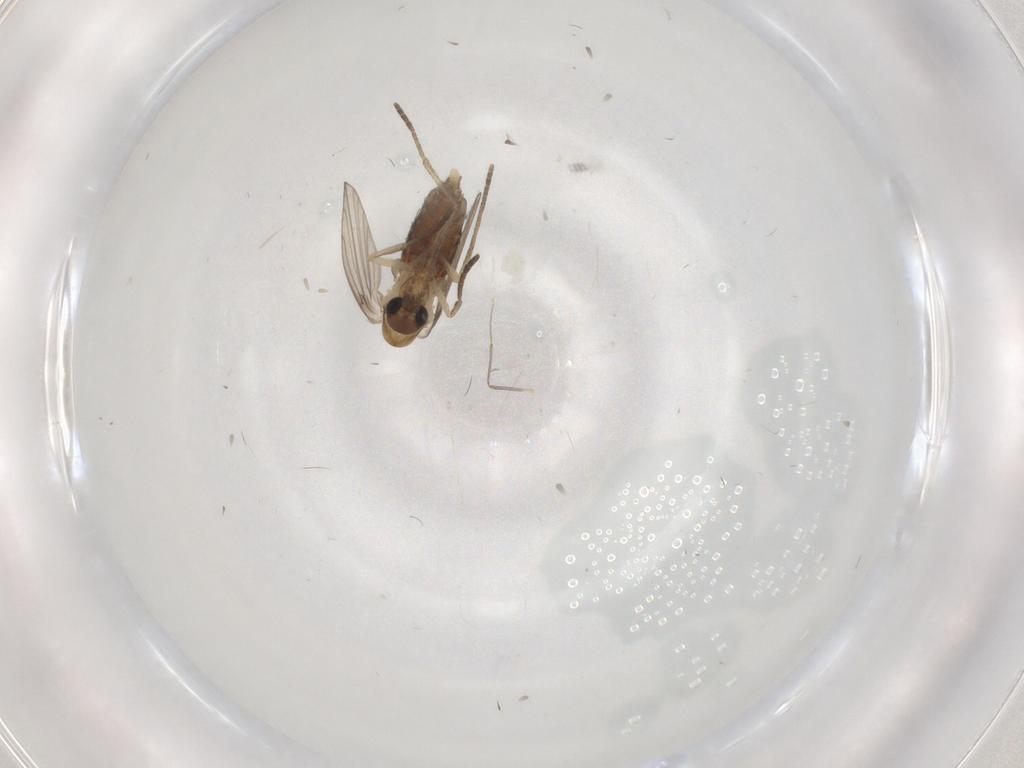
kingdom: Animalia
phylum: Arthropoda
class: Insecta
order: Diptera
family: Psychodidae
